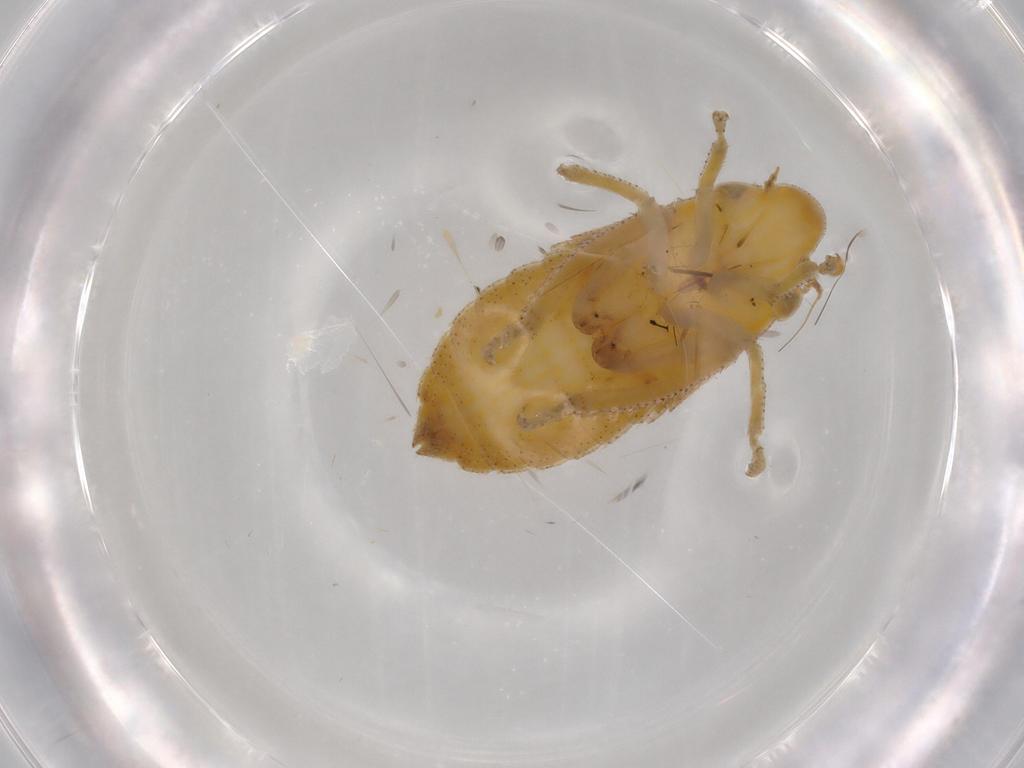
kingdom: Animalia
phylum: Arthropoda
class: Insecta
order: Hemiptera
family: Cicadellidae
